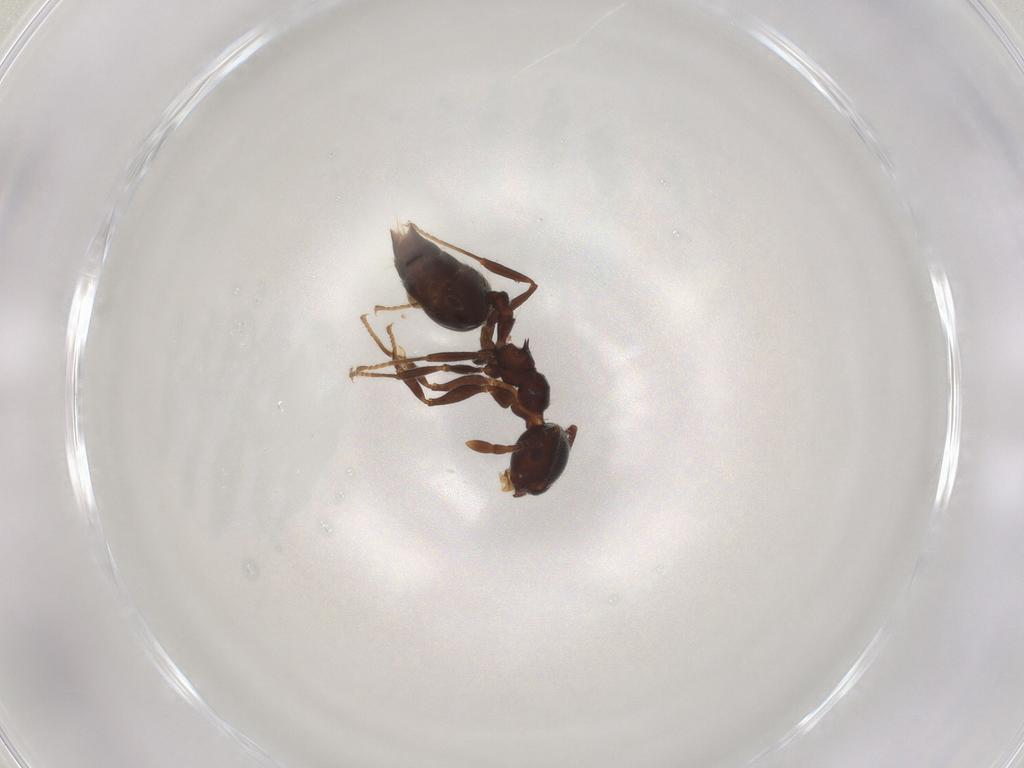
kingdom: Animalia
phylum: Arthropoda
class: Insecta
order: Hymenoptera
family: Formicidae
